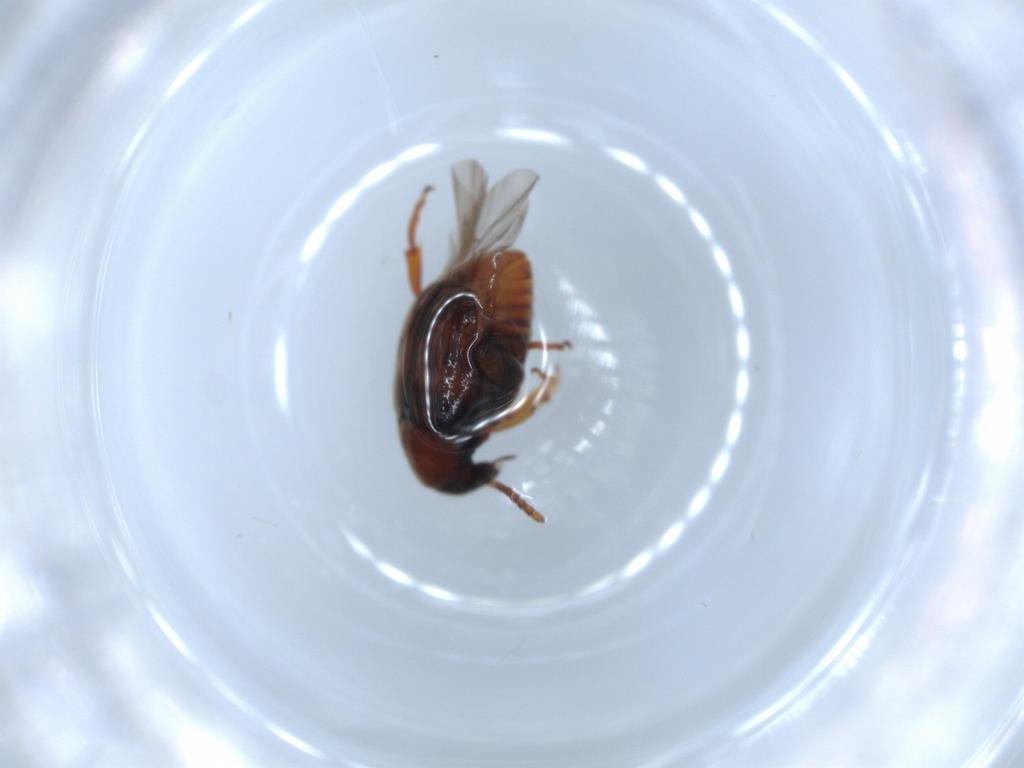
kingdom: Animalia
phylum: Arthropoda
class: Insecta
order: Coleoptera
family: Chrysomelidae
